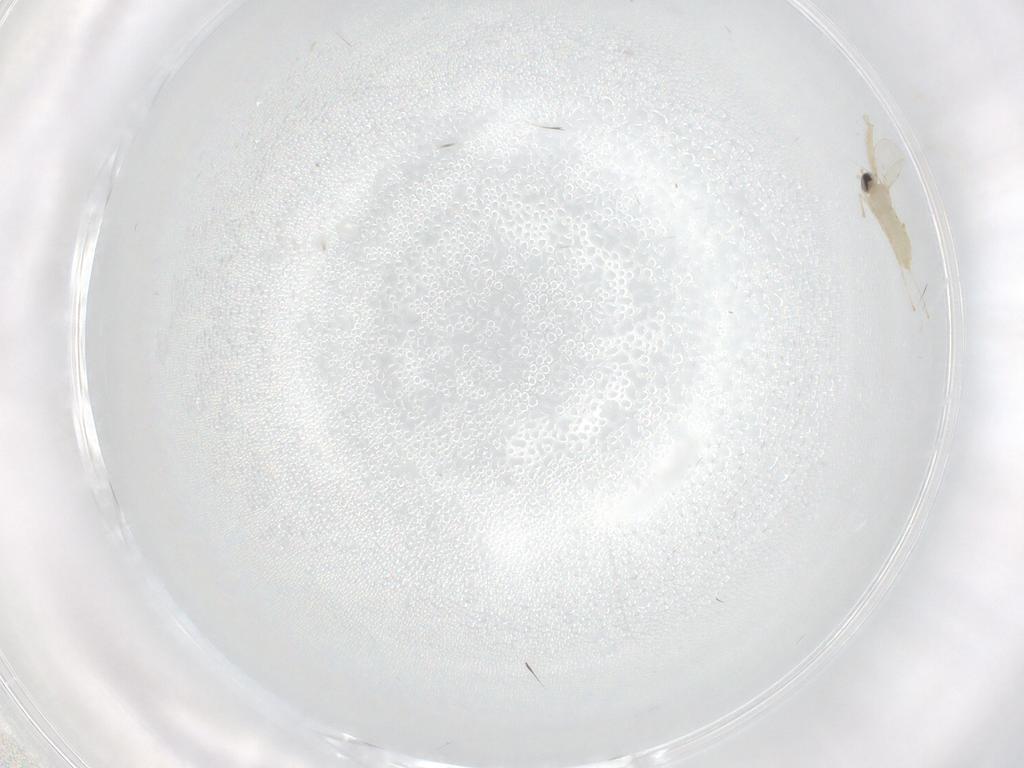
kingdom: Animalia
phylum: Arthropoda
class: Insecta
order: Diptera
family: Cecidomyiidae
